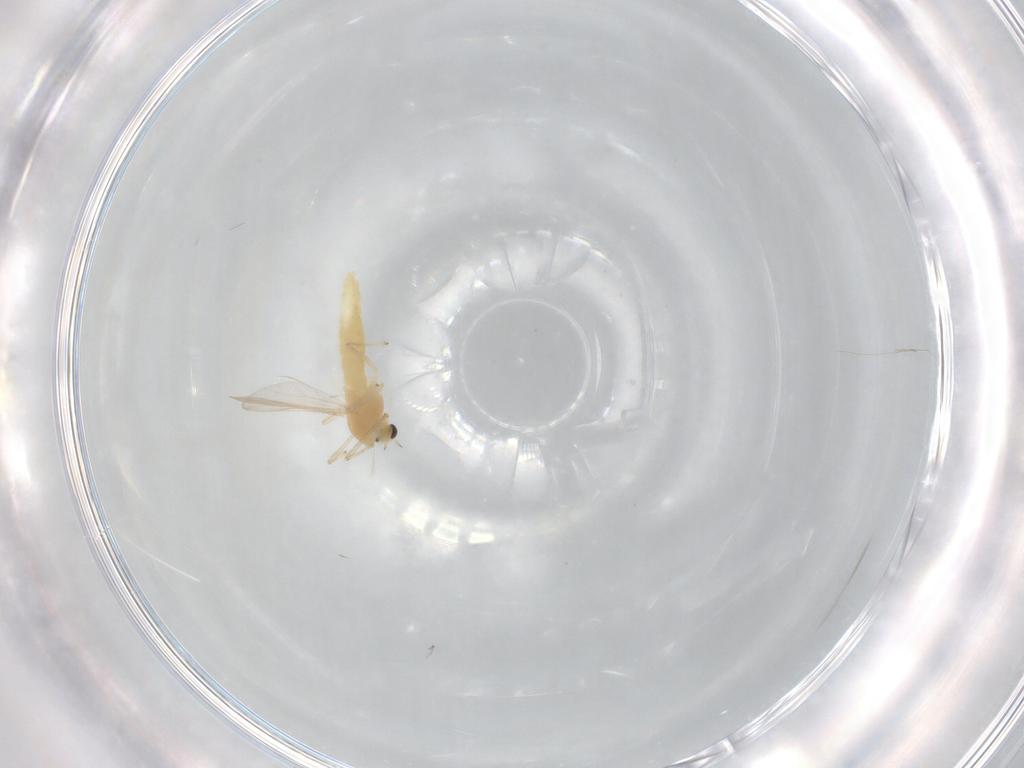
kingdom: Animalia
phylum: Arthropoda
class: Insecta
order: Diptera
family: Chironomidae
